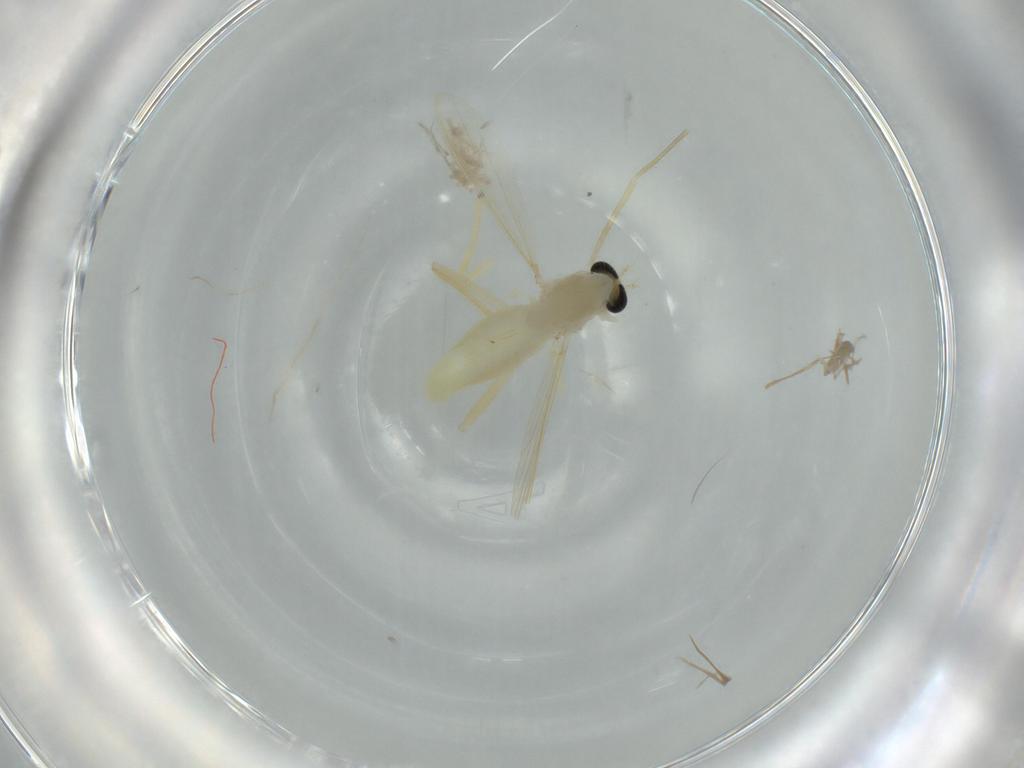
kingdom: Animalia
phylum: Arthropoda
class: Insecta
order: Diptera
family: Chironomidae
